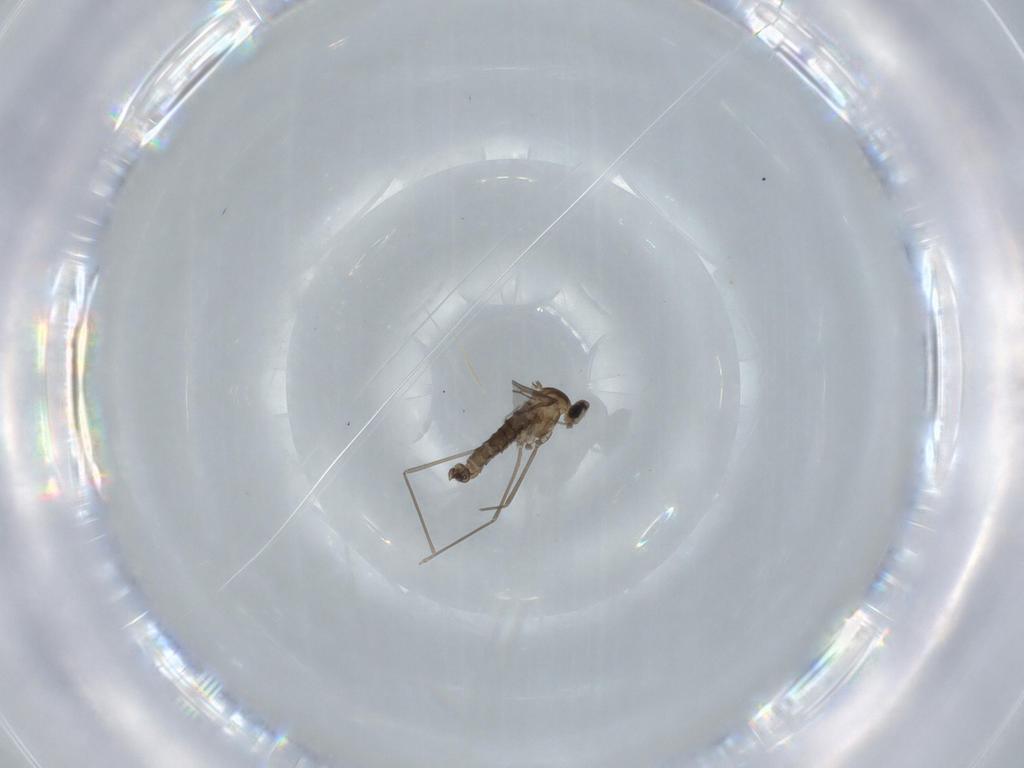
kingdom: Animalia
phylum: Arthropoda
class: Insecta
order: Diptera
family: Cecidomyiidae
